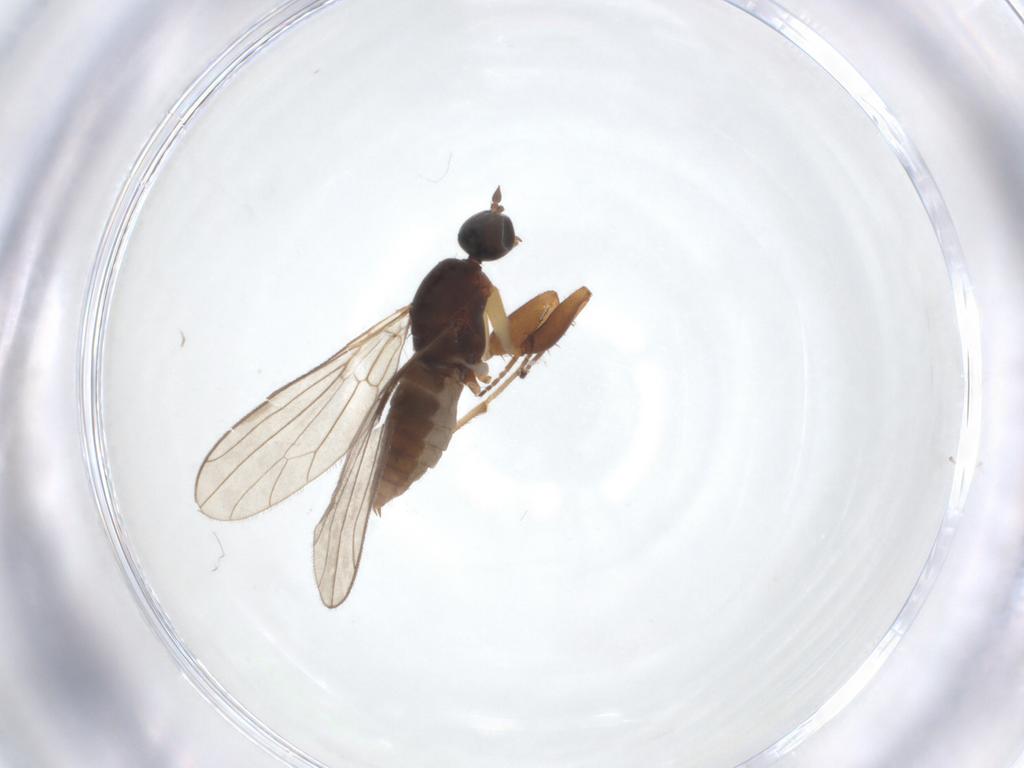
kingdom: Animalia
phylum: Arthropoda
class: Insecta
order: Diptera
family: Empididae
